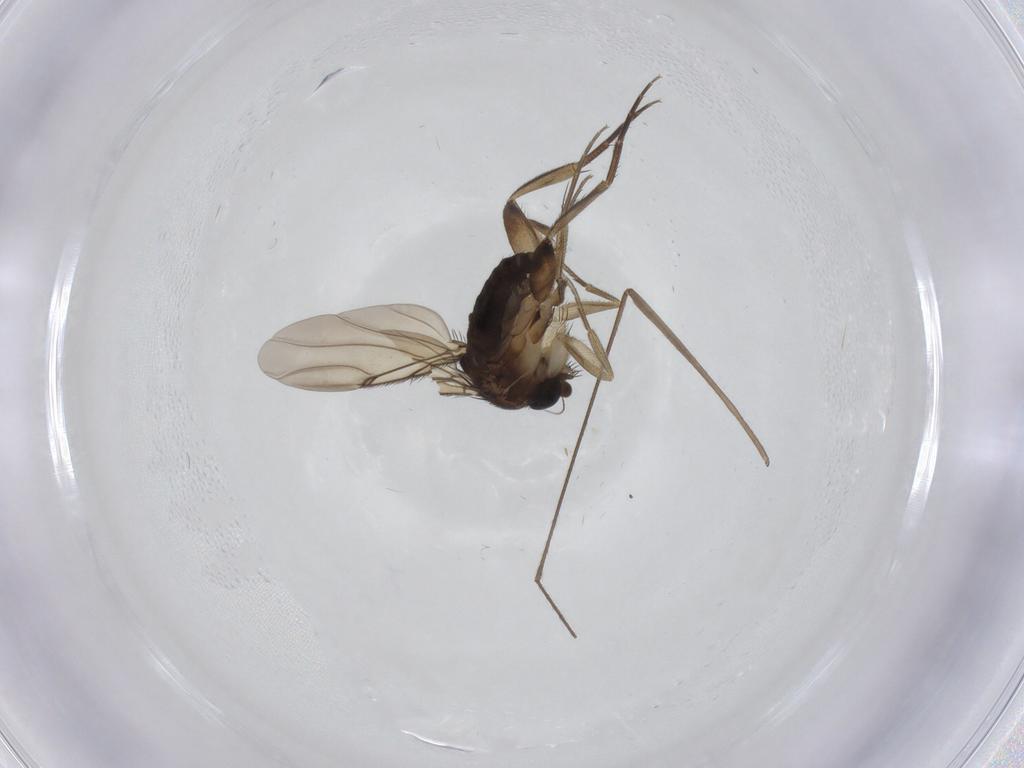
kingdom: Animalia
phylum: Arthropoda
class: Insecta
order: Diptera
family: Phoridae
